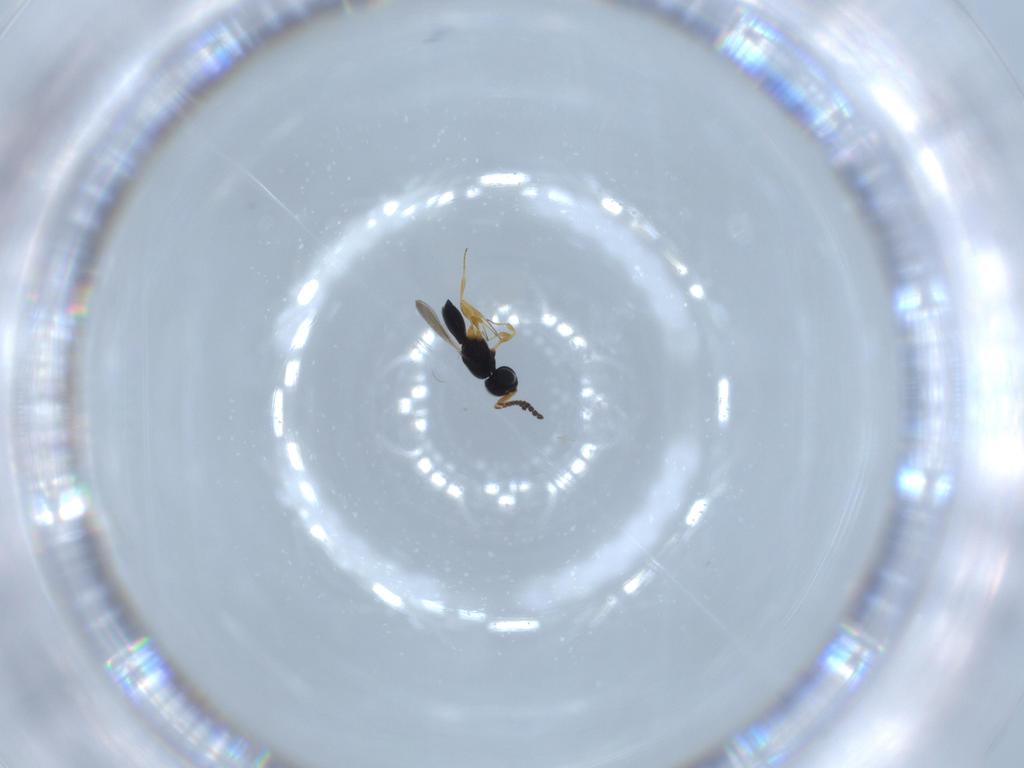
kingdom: Animalia
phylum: Arthropoda
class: Insecta
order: Hymenoptera
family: Scelionidae
